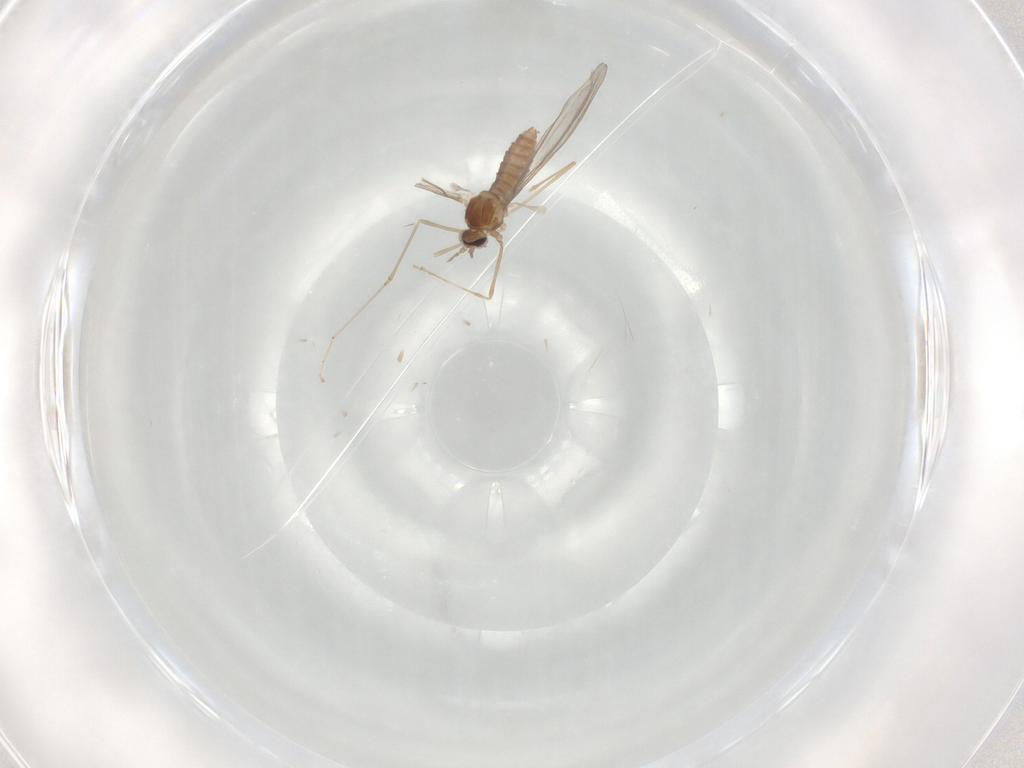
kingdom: Animalia
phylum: Arthropoda
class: Insecta
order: Diptera
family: Cecidomyiidae
